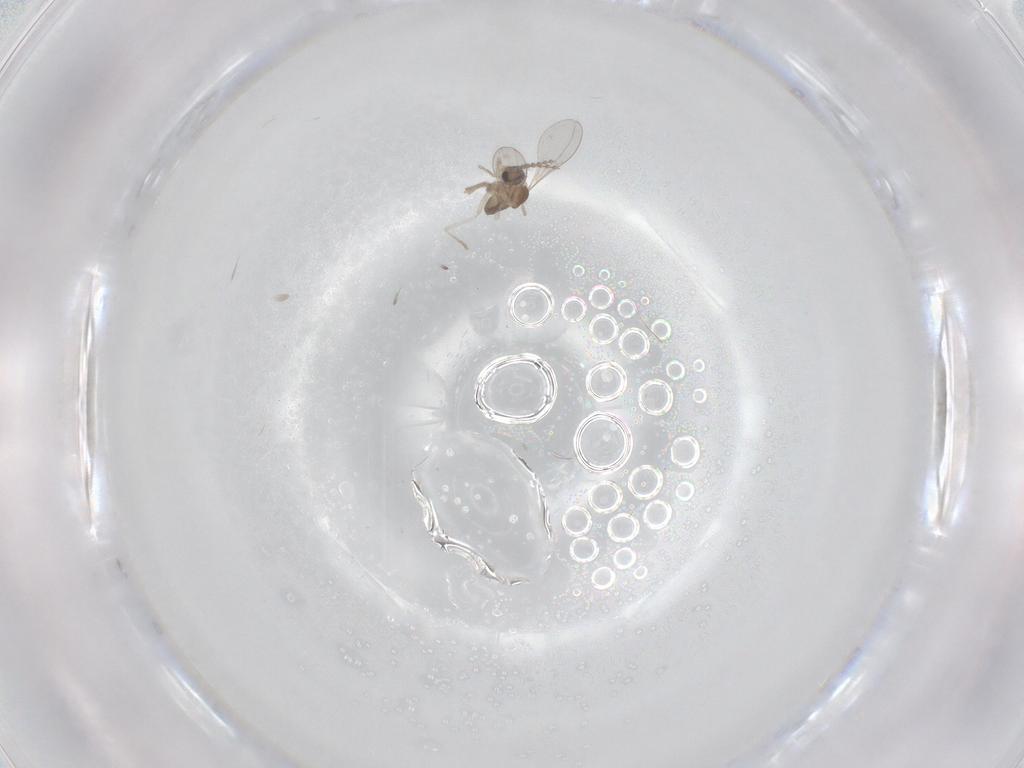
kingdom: Animalia
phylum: Arthropoda
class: Insecta
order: Diptera
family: Cecidomyiidae
